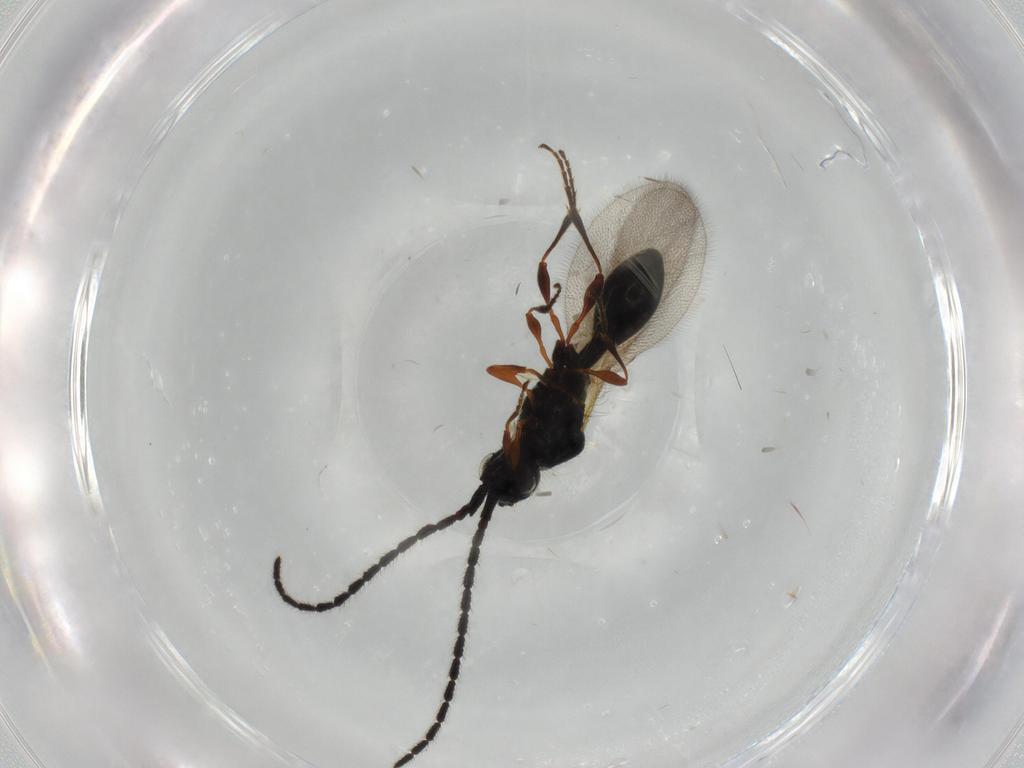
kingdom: Animalia
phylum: Arthropoda
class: Insecta
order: Hymenoptera
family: Diapriidae
